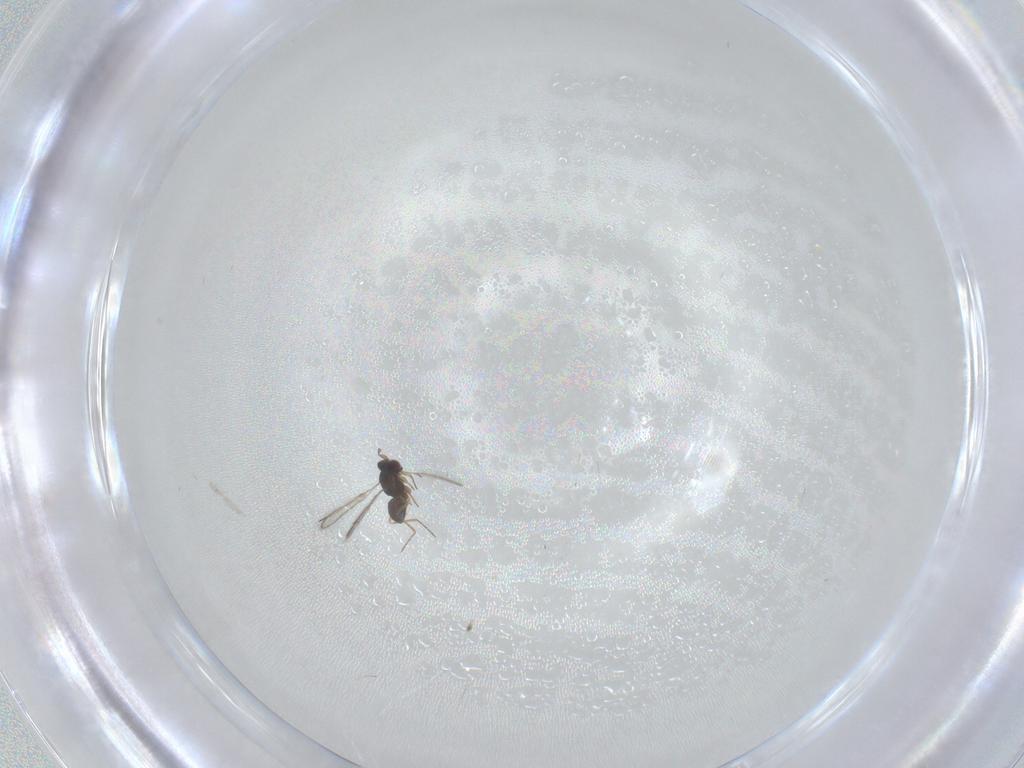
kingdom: Animalia
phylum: Arthropoda
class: Insecta
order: Hymenoptera
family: Mymaridae
